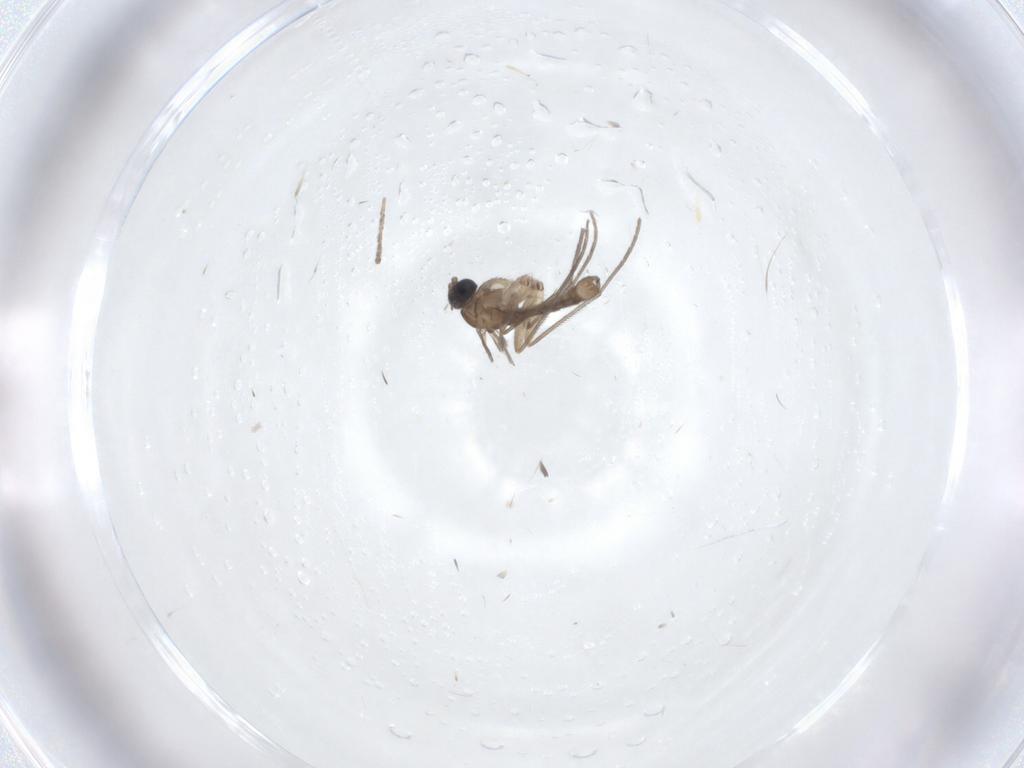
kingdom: Animalia
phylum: Arthropoda
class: Insecta
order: Diptera
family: Sciaridae
